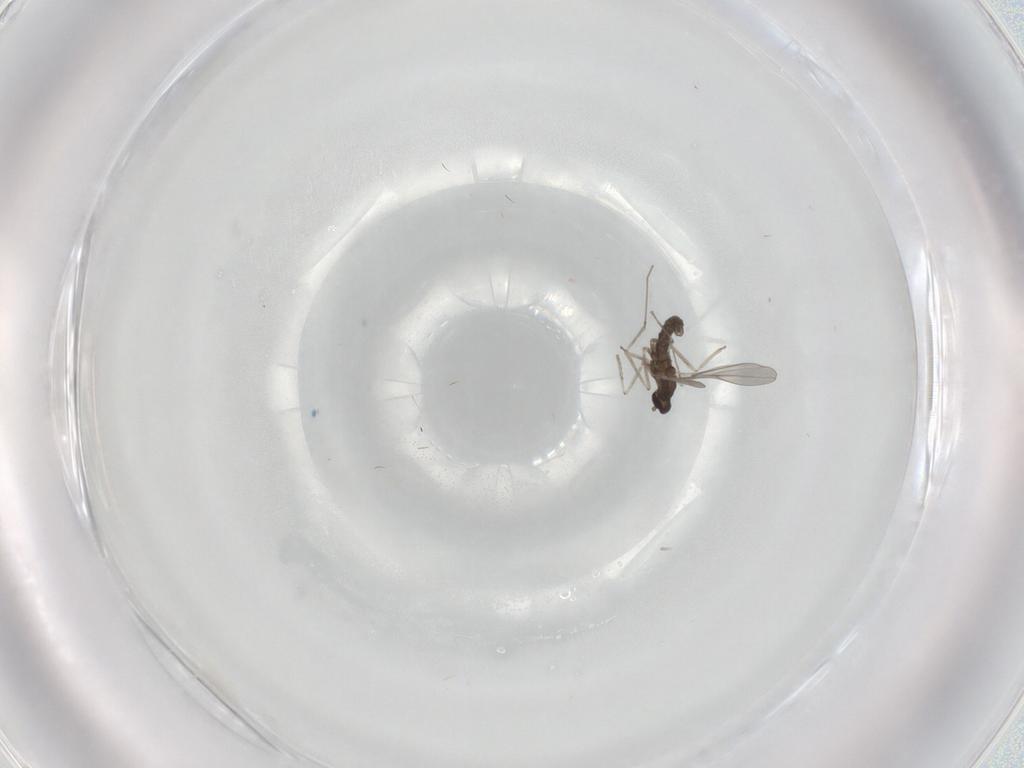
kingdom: Animalia
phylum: Arthropoda
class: Insecta
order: Diptera
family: Cecidomyiidae
